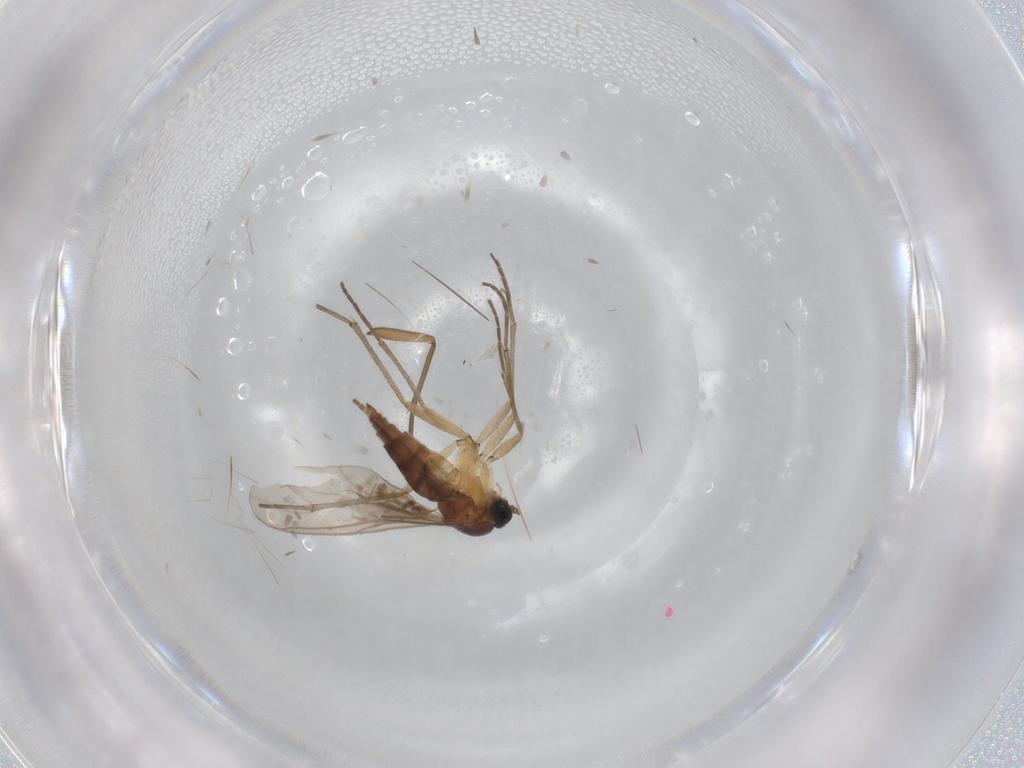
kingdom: Animalia
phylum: Arthropoda
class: Insecta
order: Diptera
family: Sciaridae
